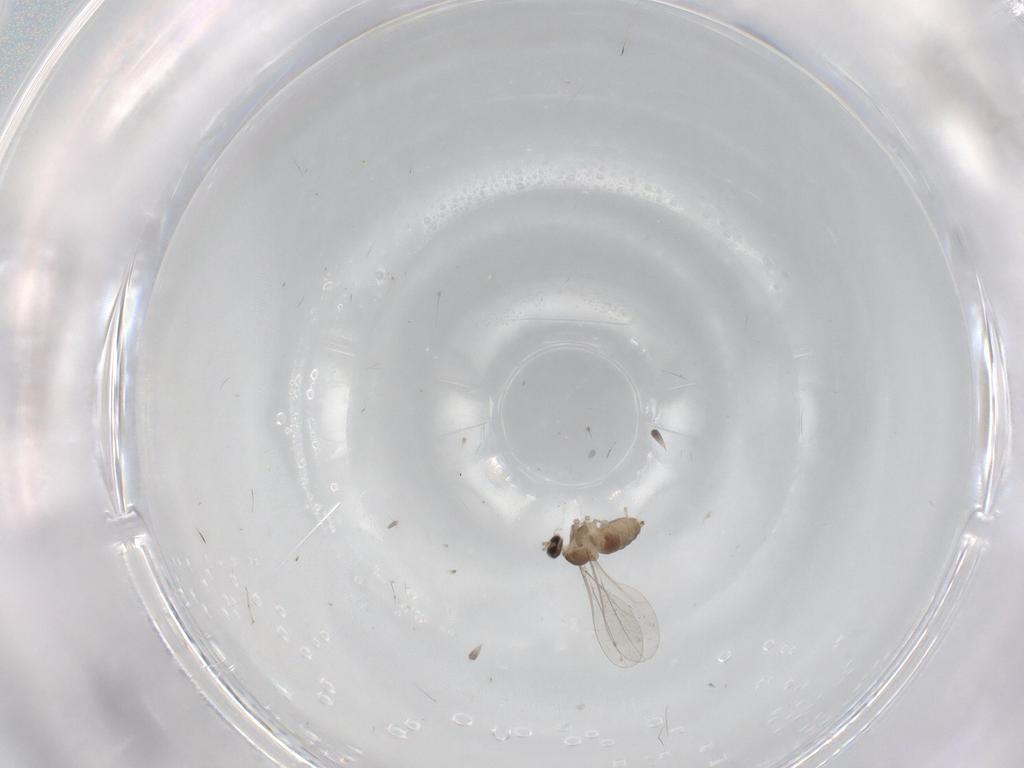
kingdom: Animalia
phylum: Arthropoda
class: Insecta
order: Diptera
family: Cecidomyiidae
